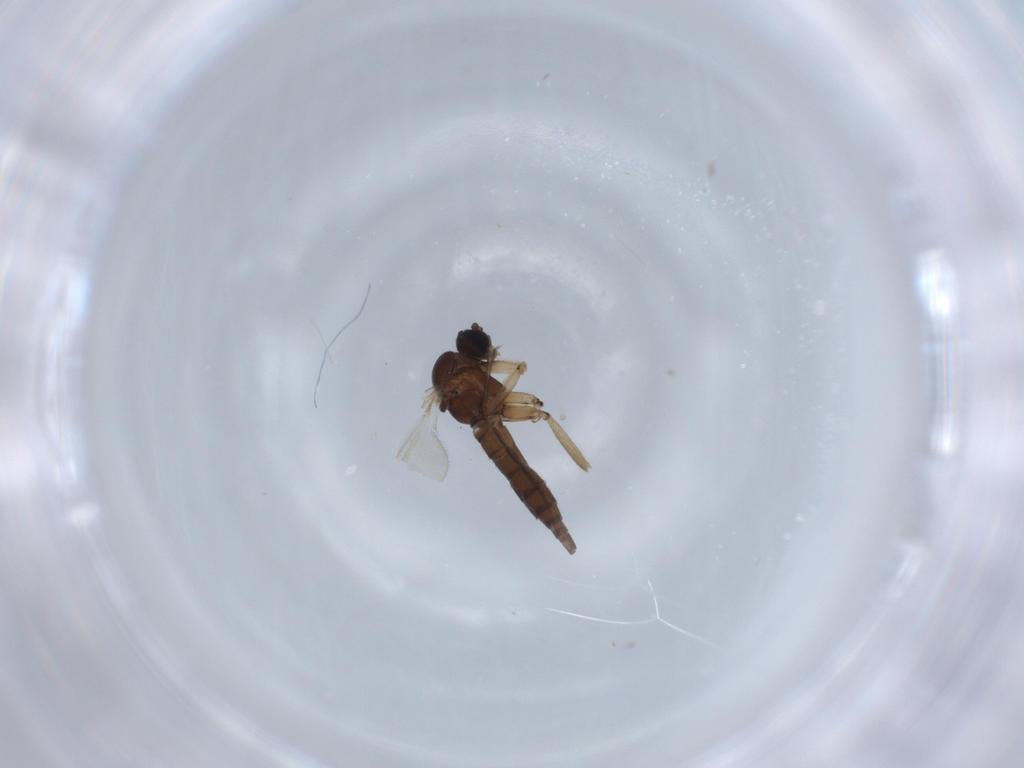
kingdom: Animalia
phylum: Arthropoda
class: Insecta
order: Diptera
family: Sciaridae
